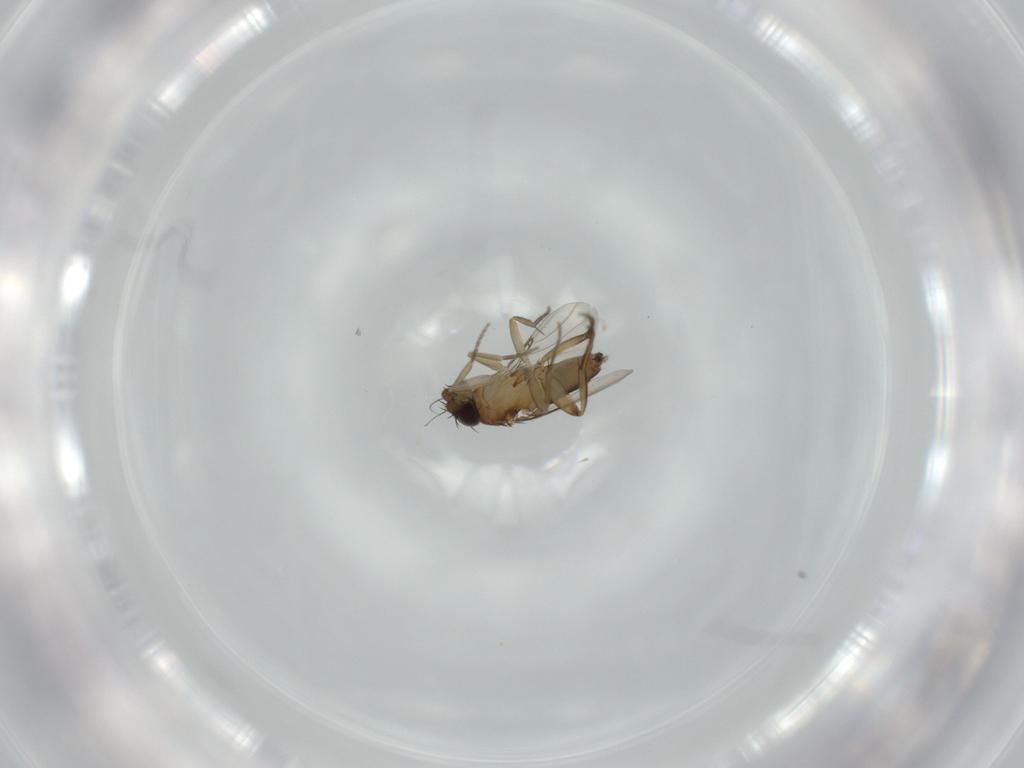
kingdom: Animalia
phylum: Arthropoda
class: Insecta
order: Diptera
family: Phoridae
